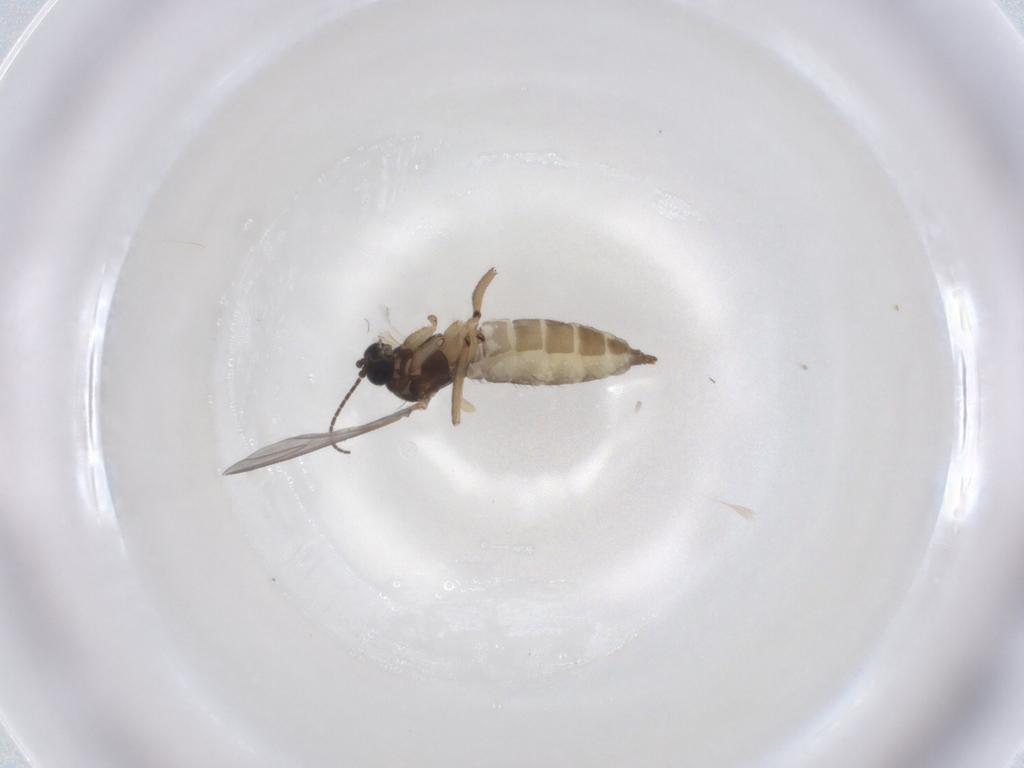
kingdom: Animalia
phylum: Arthropoda
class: Insecta
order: Diptera
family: Sciaridae
